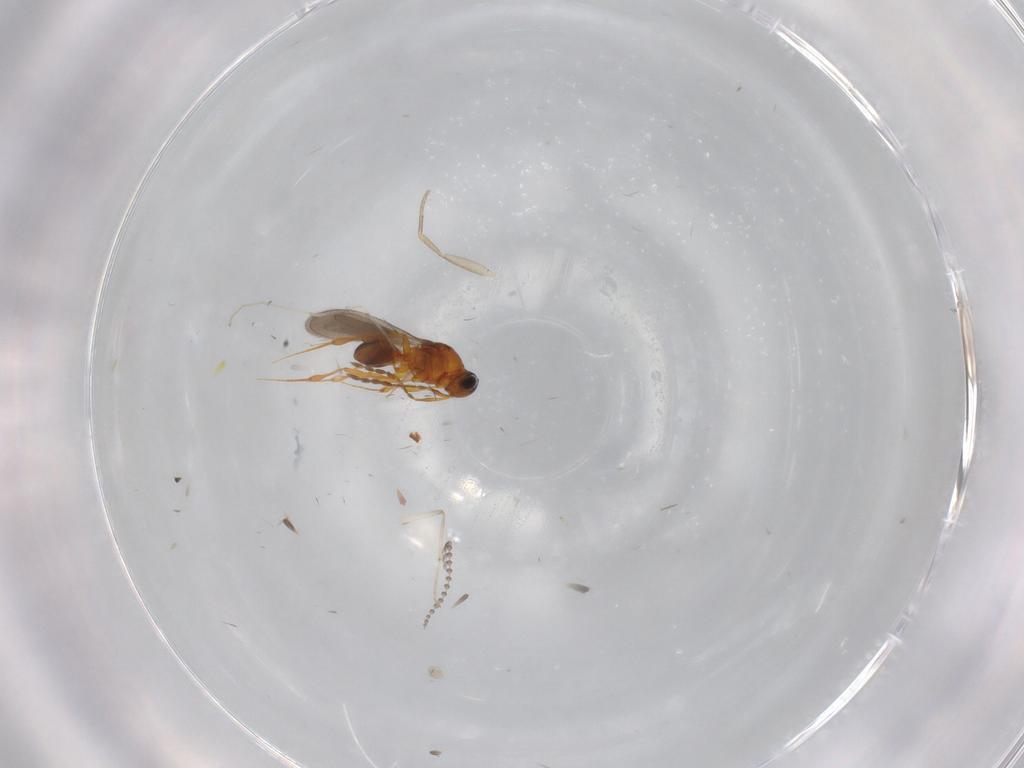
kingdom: Animalia
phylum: Arthropoda
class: Insecta
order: Hymenoptera
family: Platygastridae
